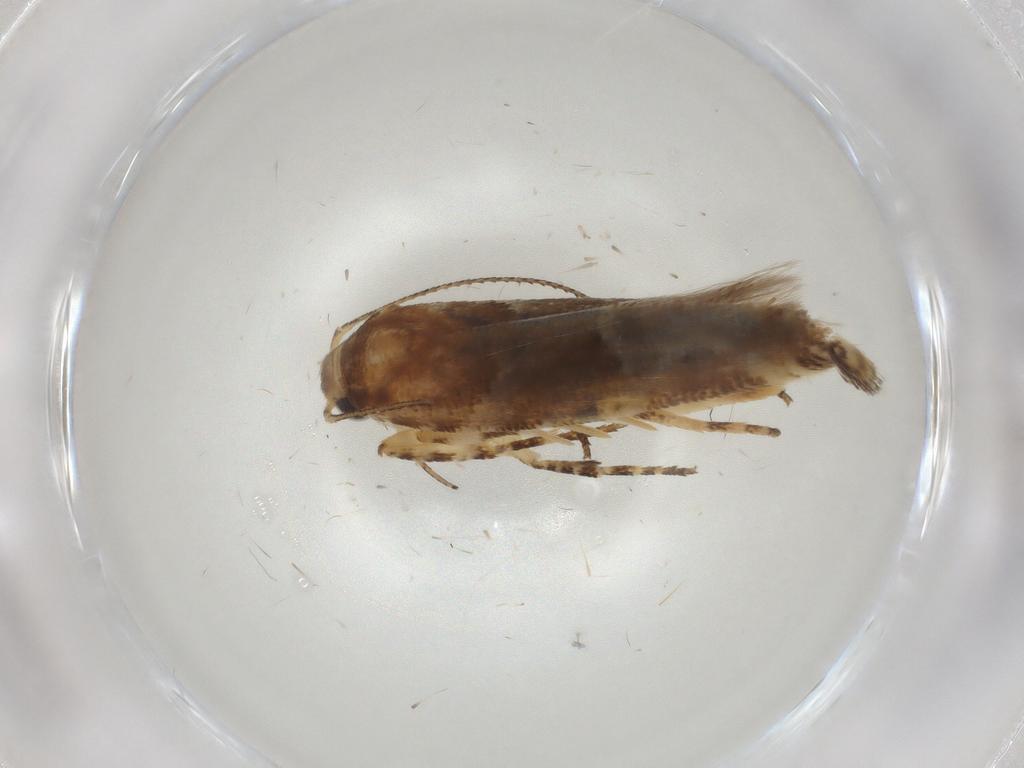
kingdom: Animalia
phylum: Arthropoda
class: Insecta
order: Lepidoptera
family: Gelechiidae
